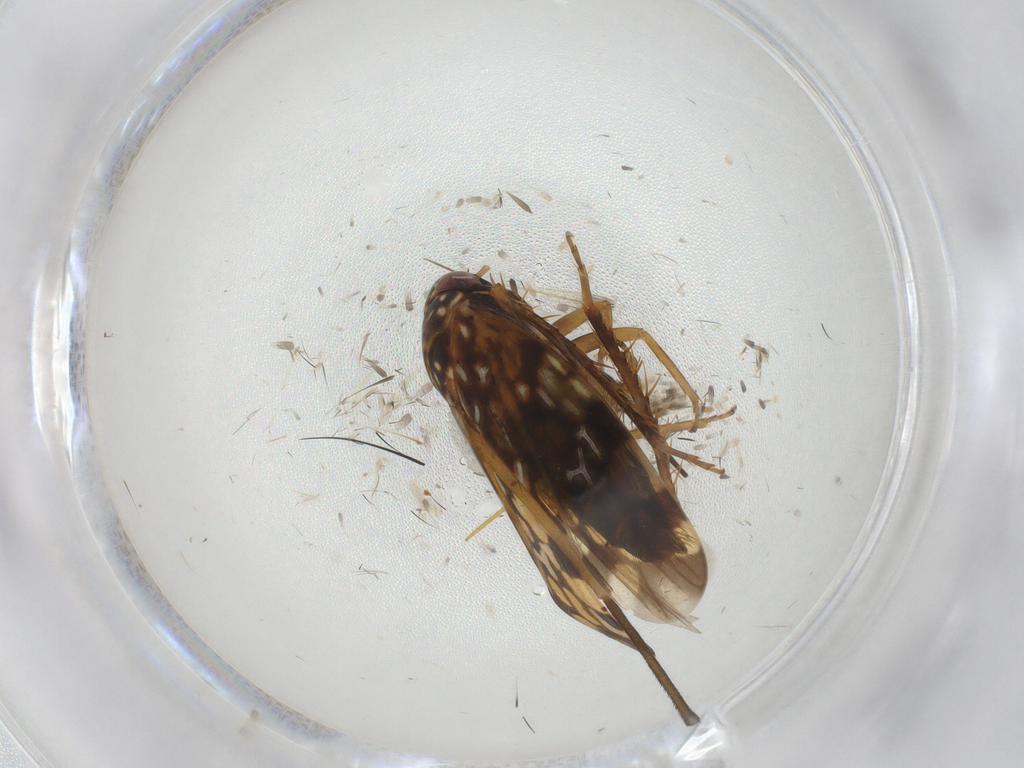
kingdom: Animalia
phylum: Arthropoda
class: Insecta
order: Hemiptera
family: Cicadellidae
